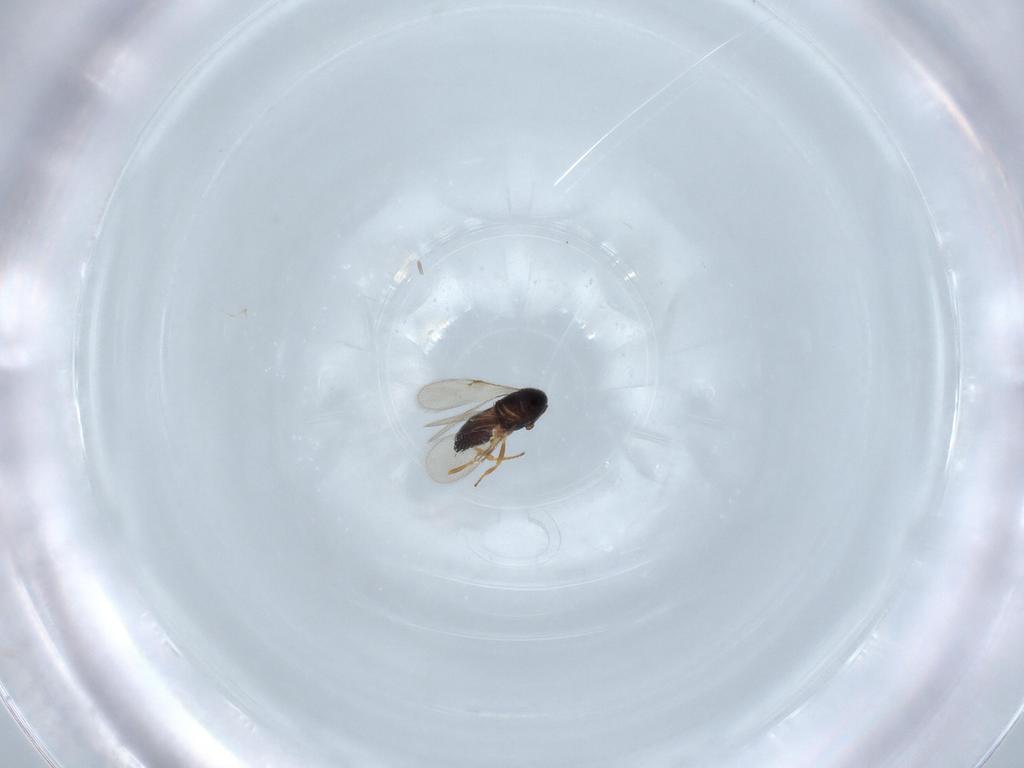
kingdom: Animalia
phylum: Arthropoda
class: Insecta
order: Hymenoptera
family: Scelionidae
